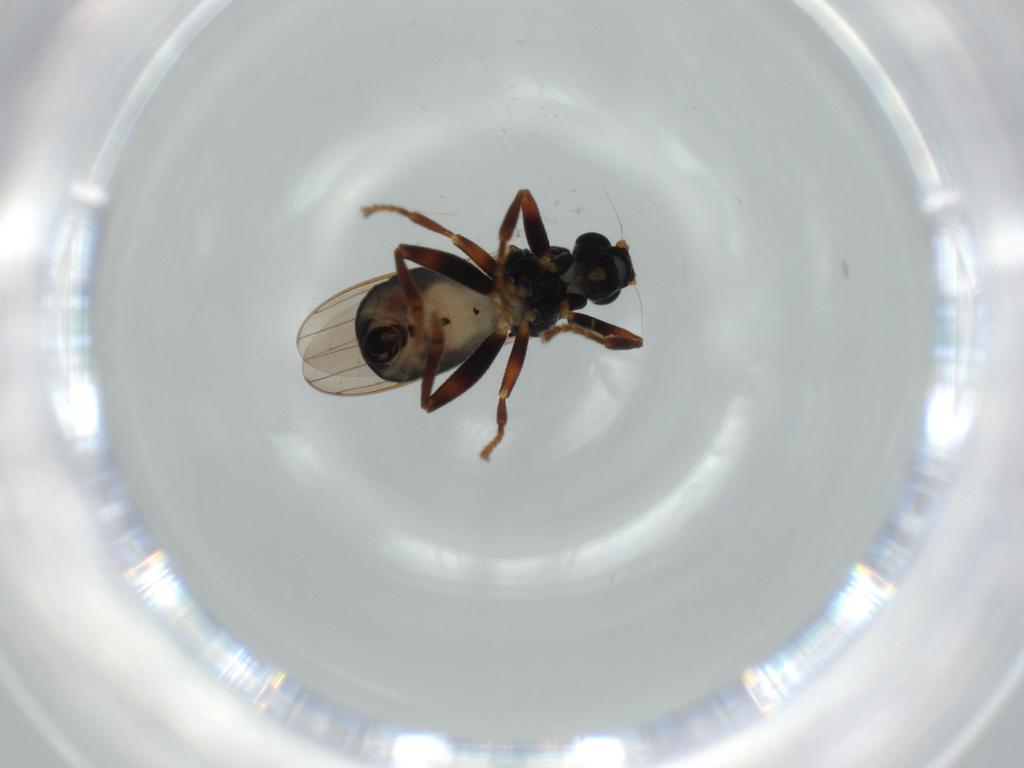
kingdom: Animalia
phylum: Arthropoda
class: Insecta
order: Diptera
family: Sphaeroceridae
